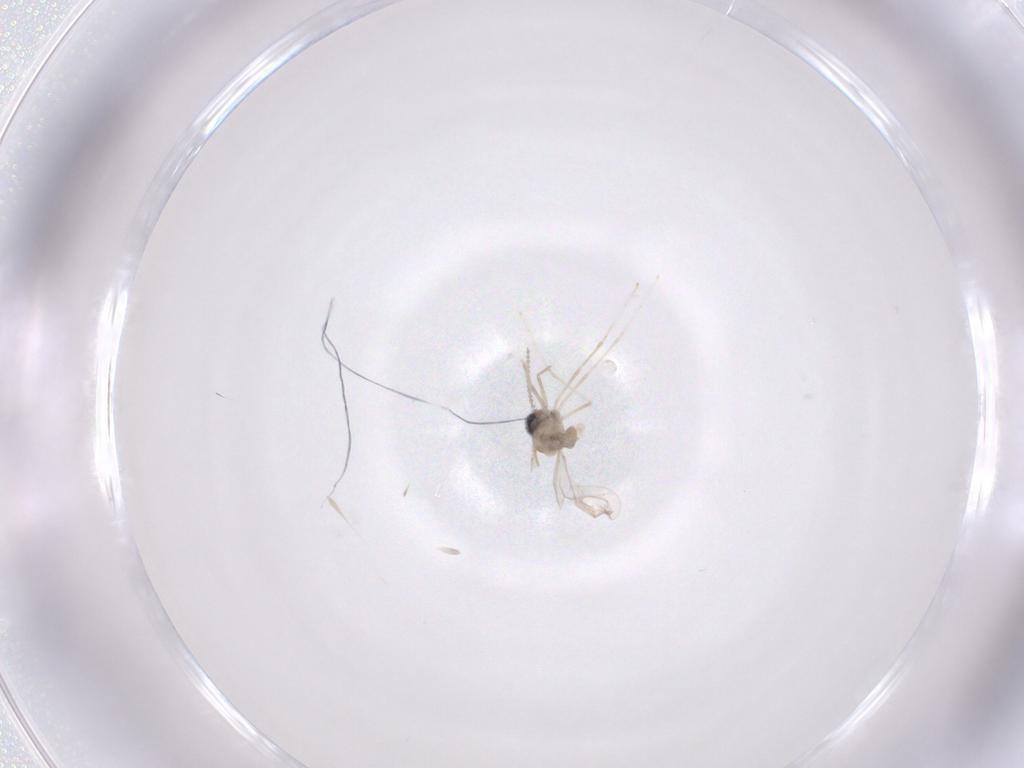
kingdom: Animalia
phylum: Arthropoda
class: Insecta
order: Diptera
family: Cecidomyiidae
